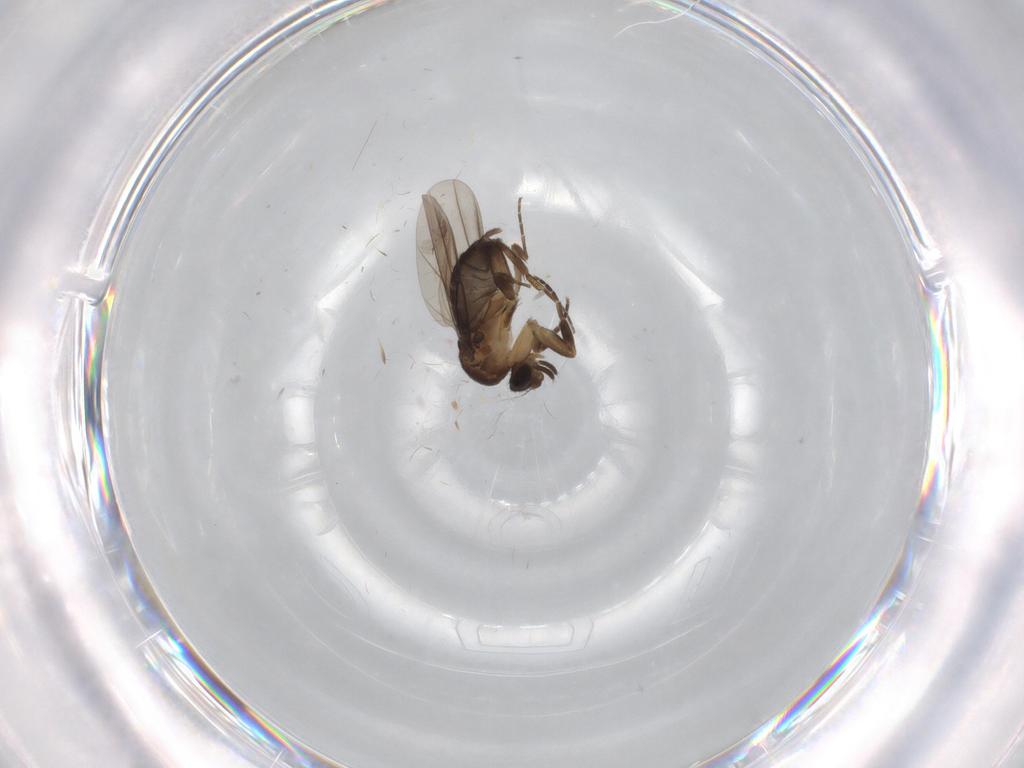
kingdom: Animalia
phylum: Arthropoda
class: Insecta
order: Diptera
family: Phoridae
